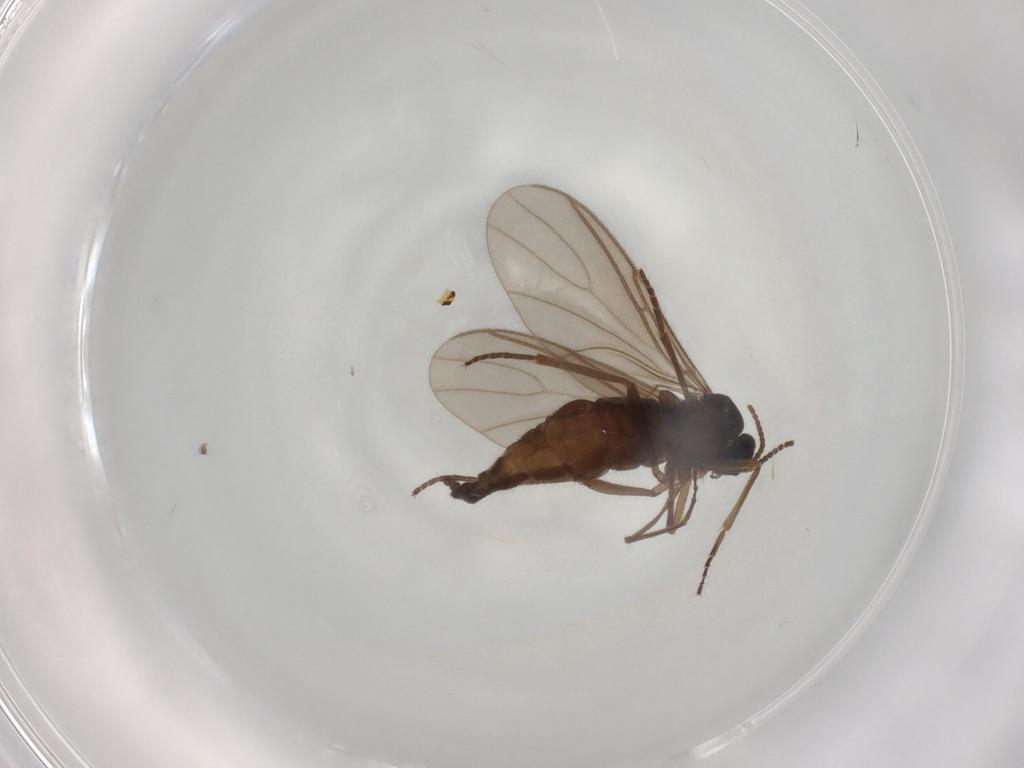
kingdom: Animalia
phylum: Arthropoda
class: Insecta
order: Diptera
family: Sciaridae
